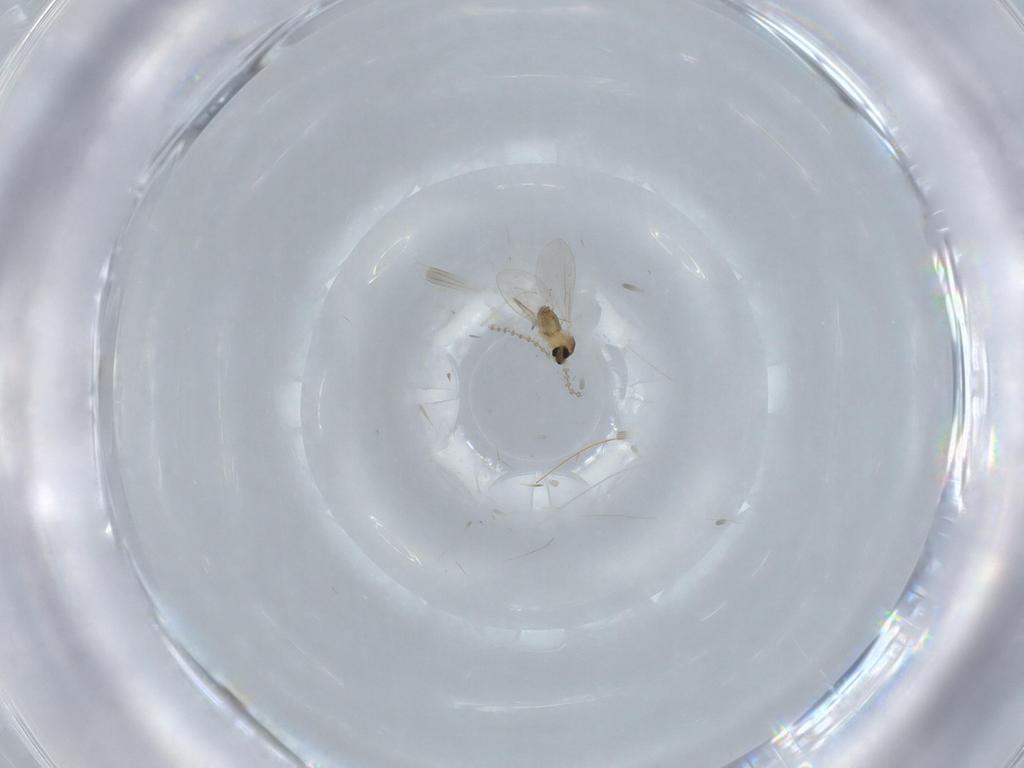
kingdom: Animalia
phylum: Arthropoda
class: Insecta
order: Diptera
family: Cecidomyiidae
